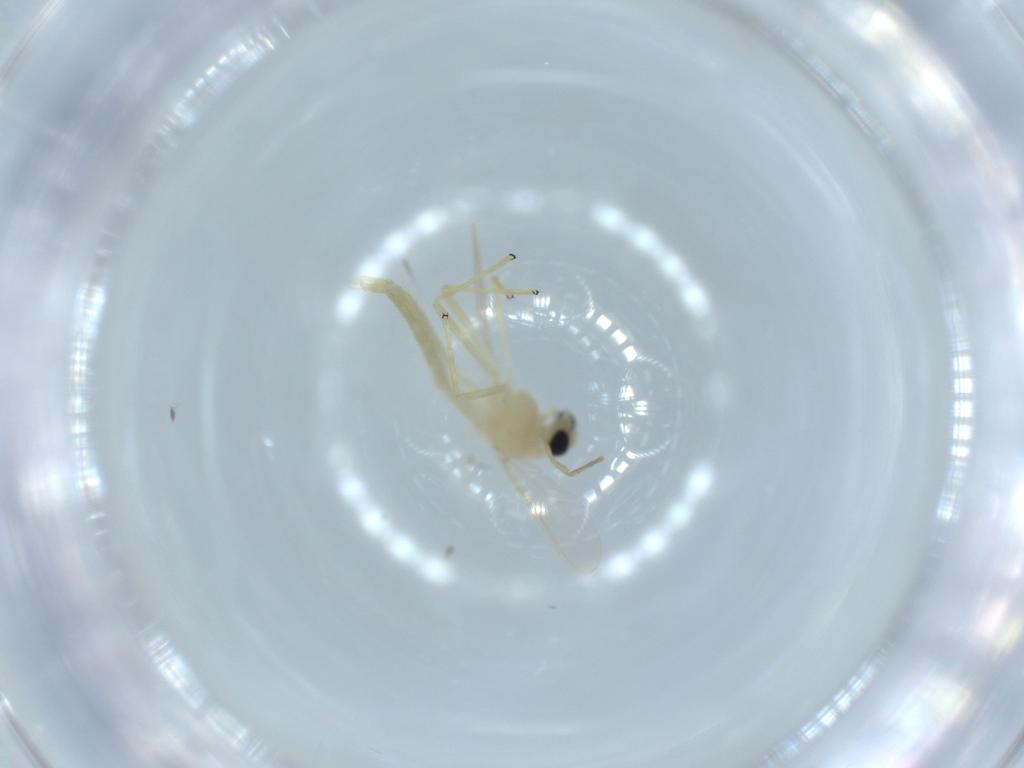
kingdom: Animalia
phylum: Arthropoda
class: Insecta
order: Diptera
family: Chironomidae
